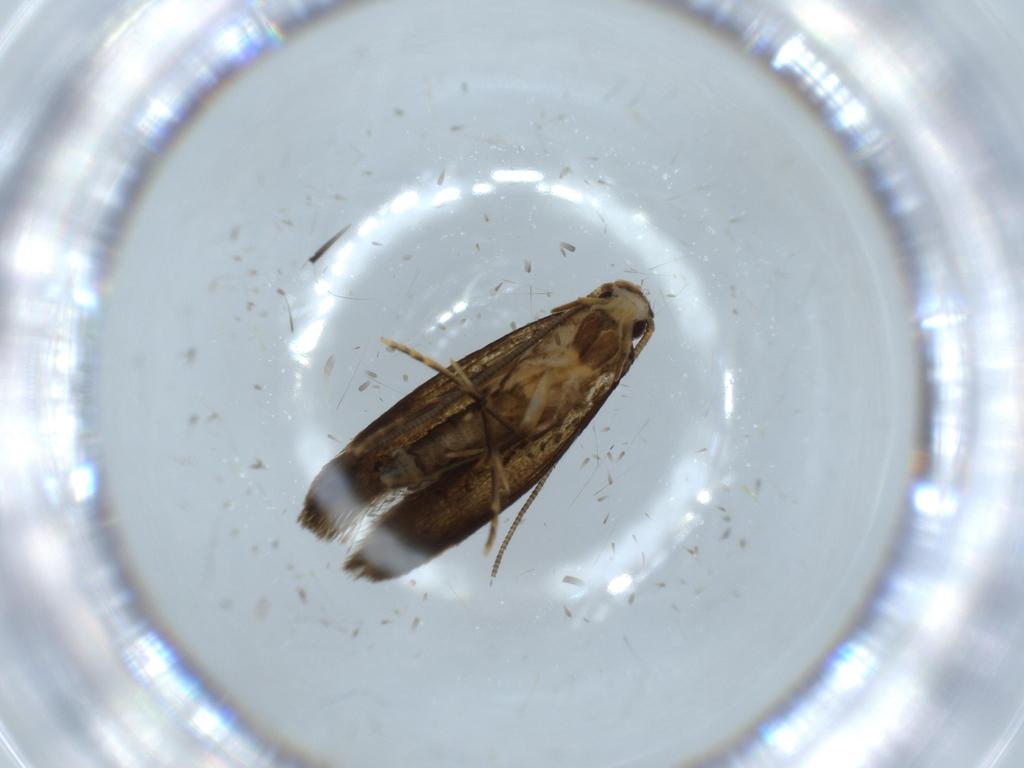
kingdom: Animalia
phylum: Arthropoda
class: Insecta
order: Lepidoptera
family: Tineidae
